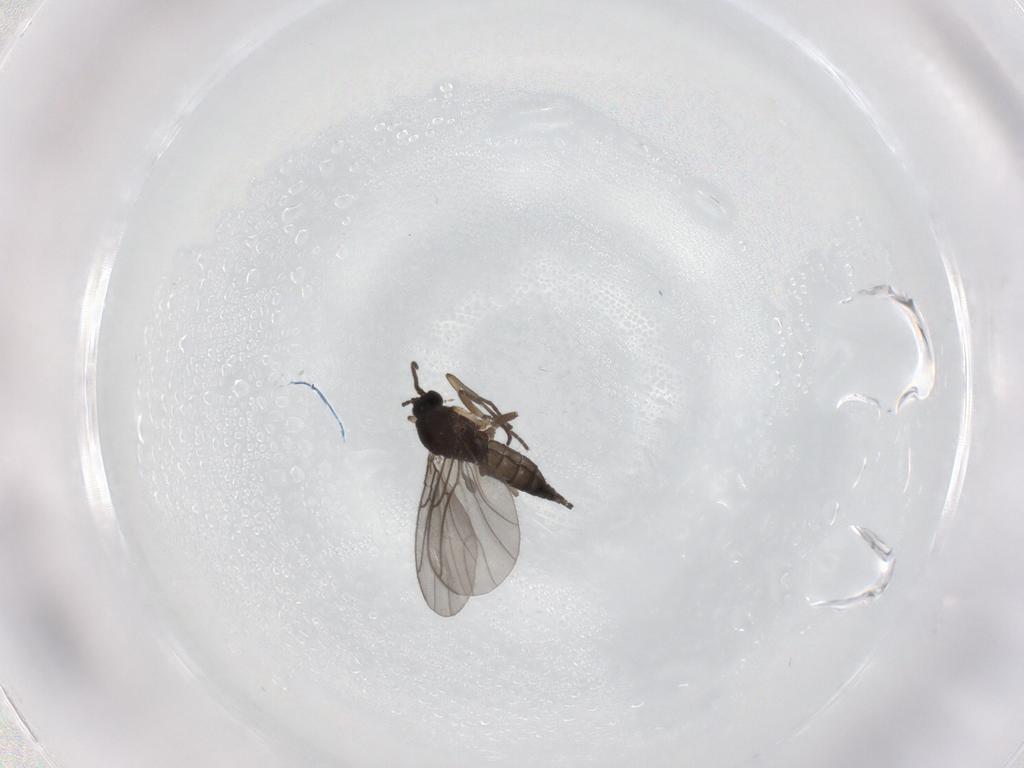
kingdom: Animalia
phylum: Arthropoda
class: Insecta
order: Diptera
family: Sciaridae
